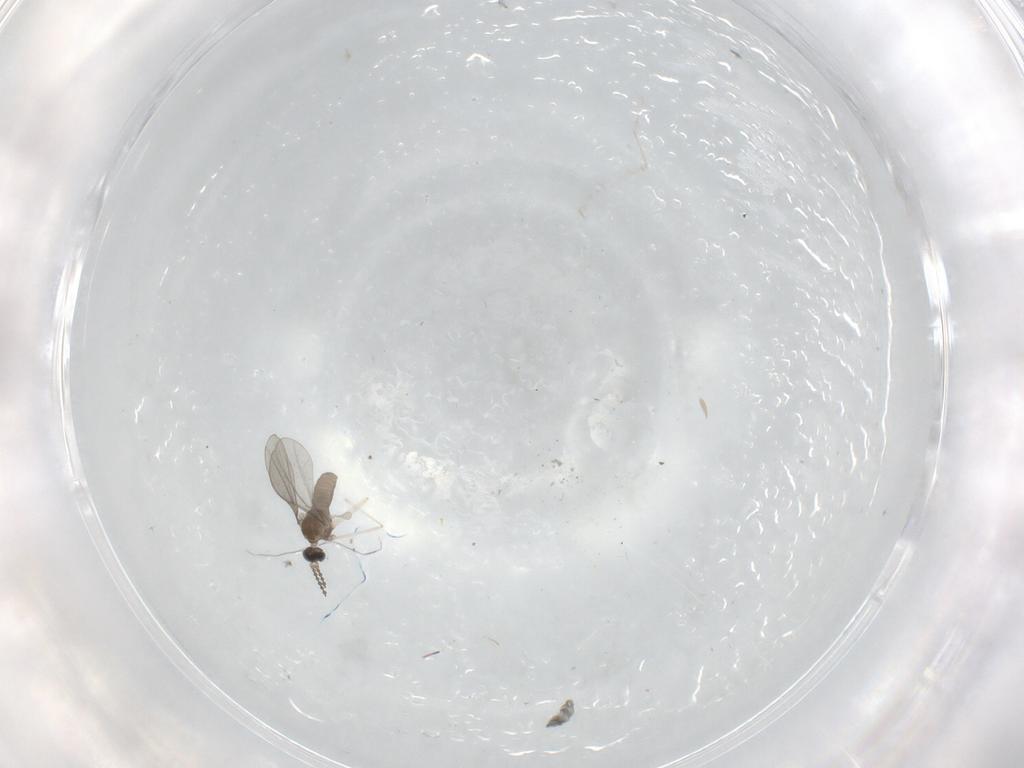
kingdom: Animalia
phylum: Arthropoda
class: Insecta
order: Diptera
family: Cecidomyiidae
